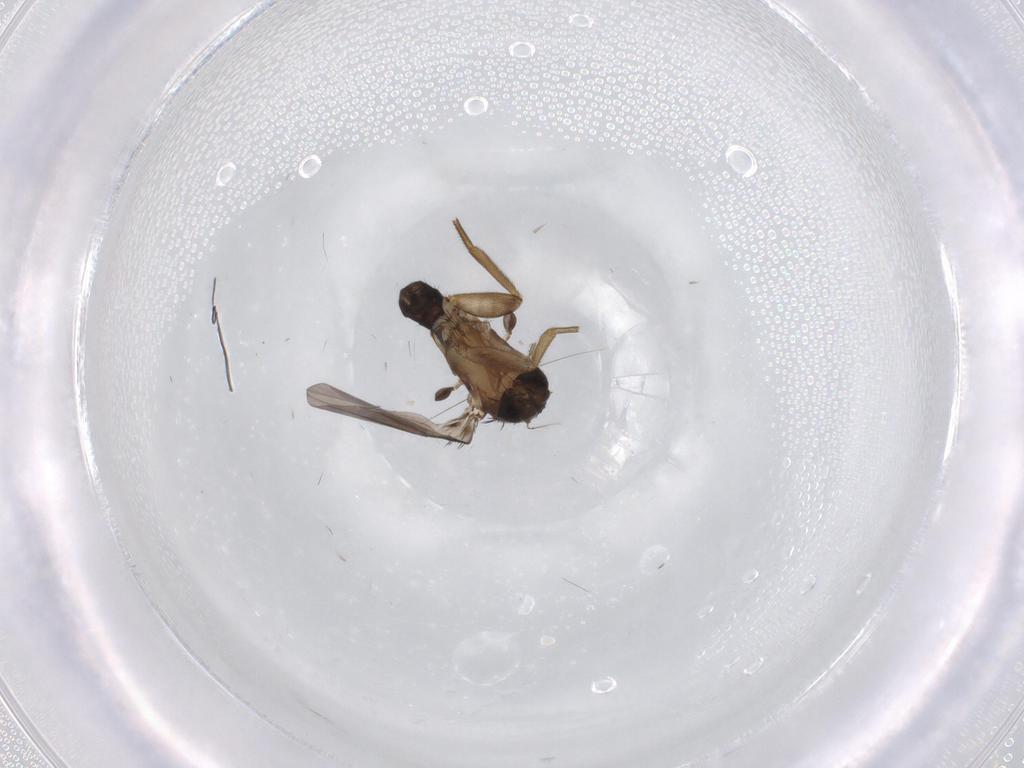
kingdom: Animalia
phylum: Arthropoda
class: Insecta
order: Diptera
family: Phoridae
